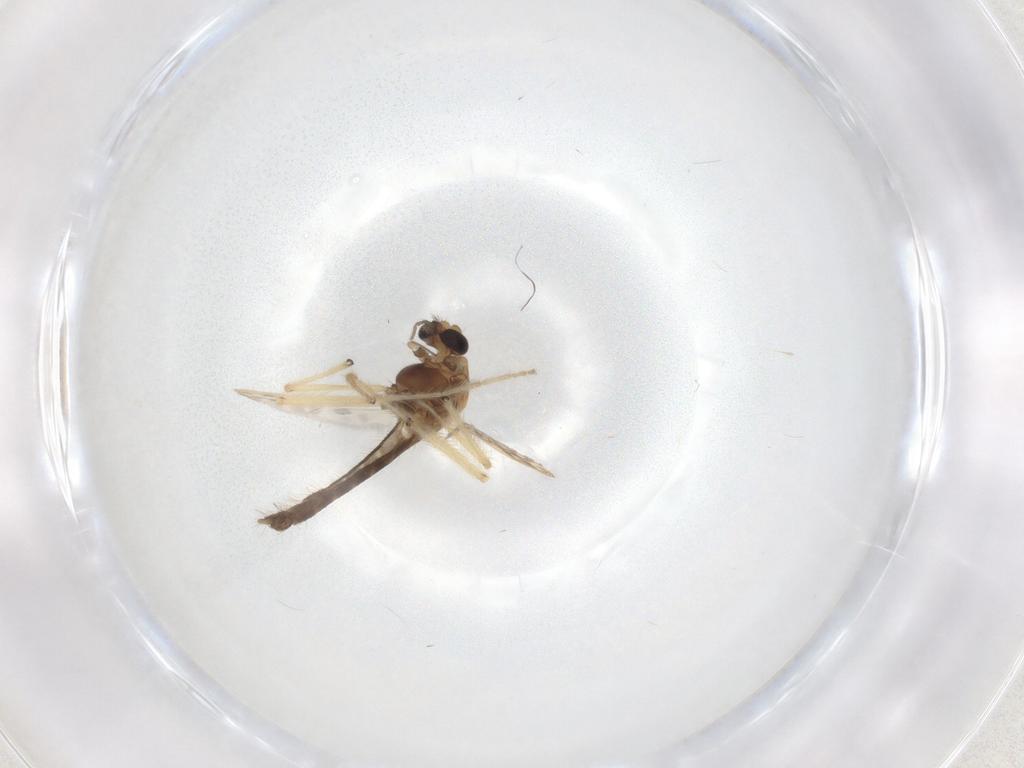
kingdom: Animalia
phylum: Arthropoda
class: Insecta
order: Diptera
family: Chironomidae
